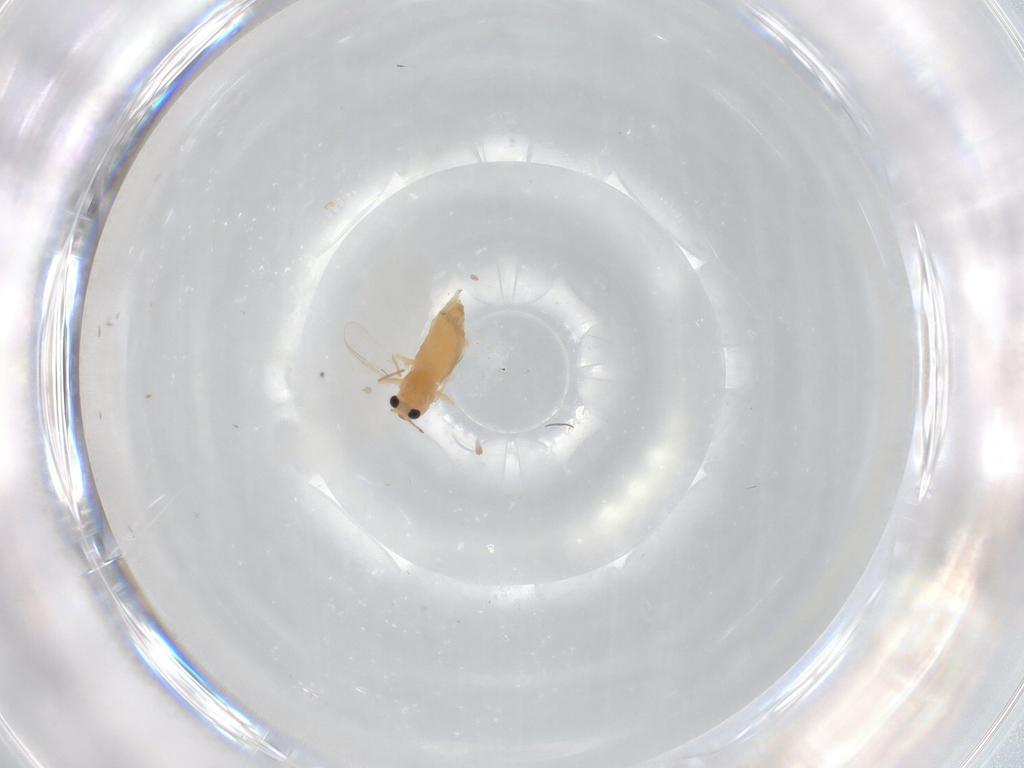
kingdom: Animalia
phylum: Arthropoda
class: Insecta
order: Diptera
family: Chironomidae
